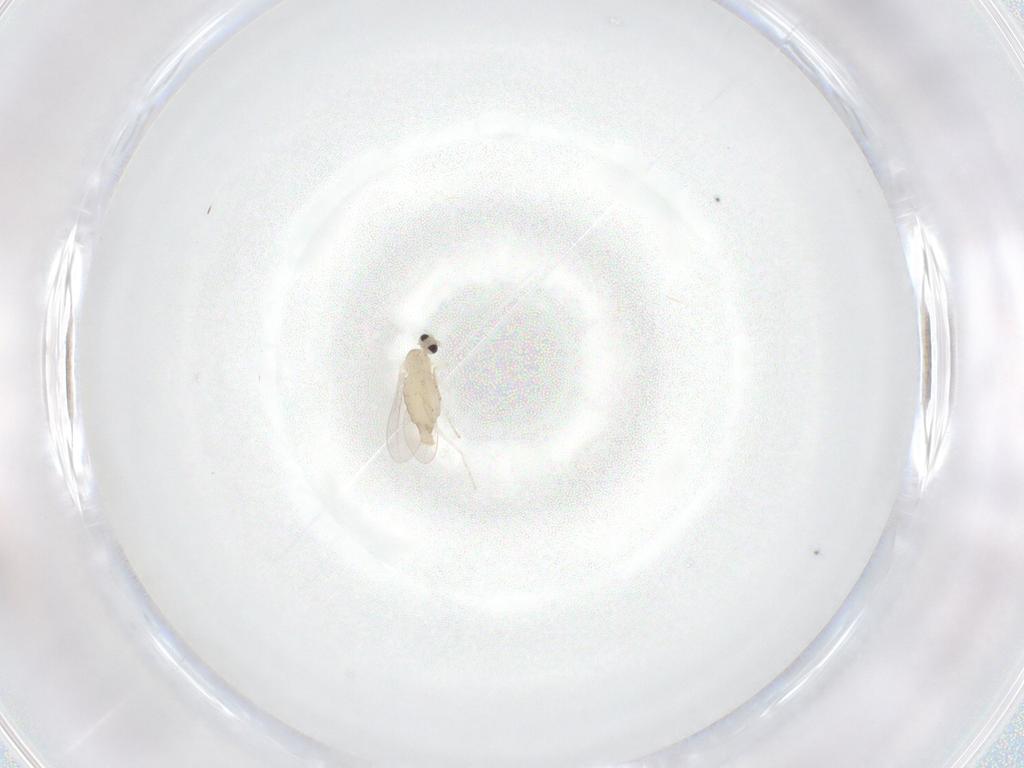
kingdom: Animalia
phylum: Arthropoda
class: Insecta
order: Diptera
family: Cecidomyiidae
